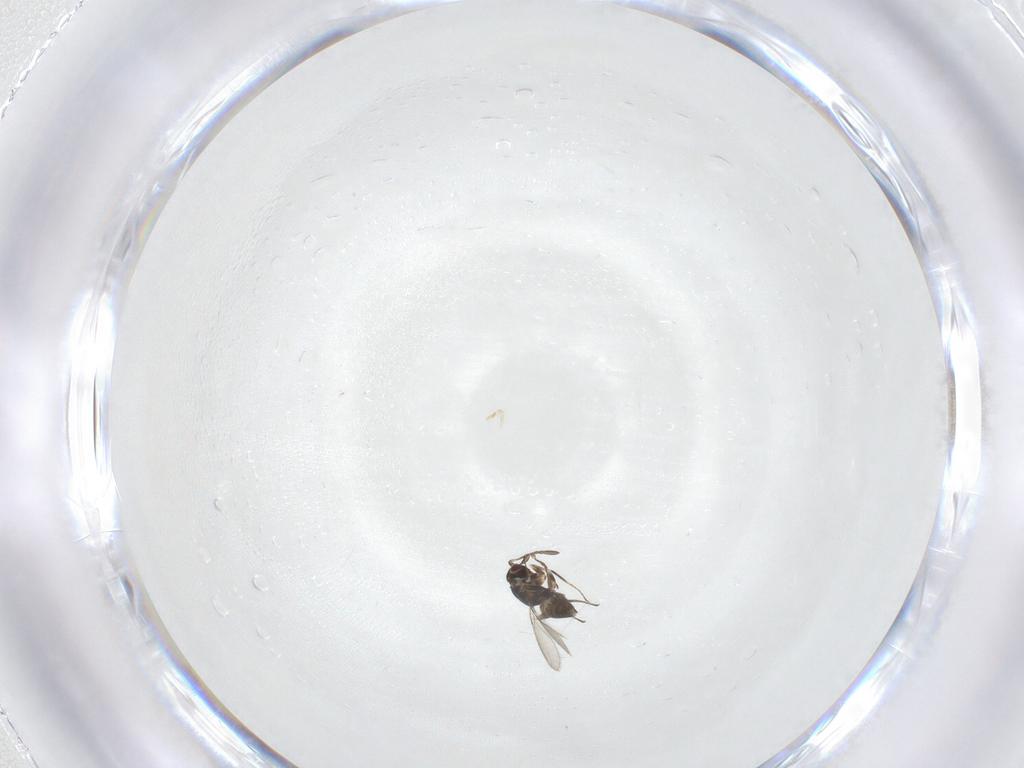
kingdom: Animalia
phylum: Arthropoda
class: Insecta
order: Hymenoptera
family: Mymaridae
